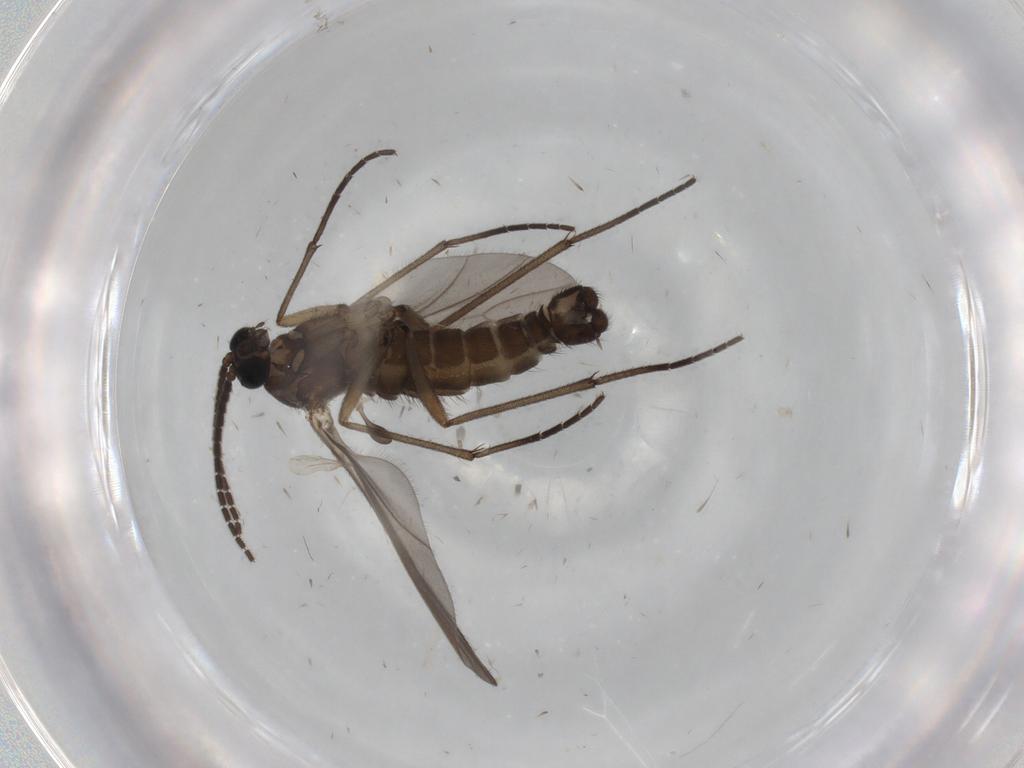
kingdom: Animalia
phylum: Arthropoda
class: Insecta
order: Diptera
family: Sciaridae
